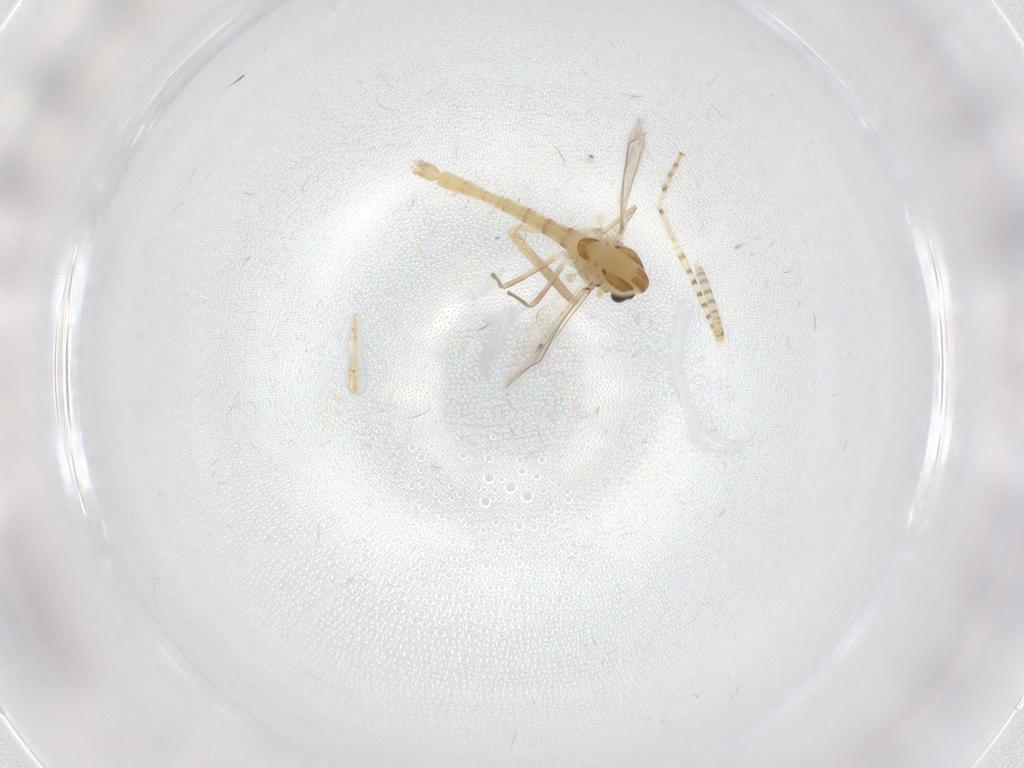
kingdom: Animalia
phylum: Arthropoda
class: Insecta
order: Diptera
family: Chaoboridae
